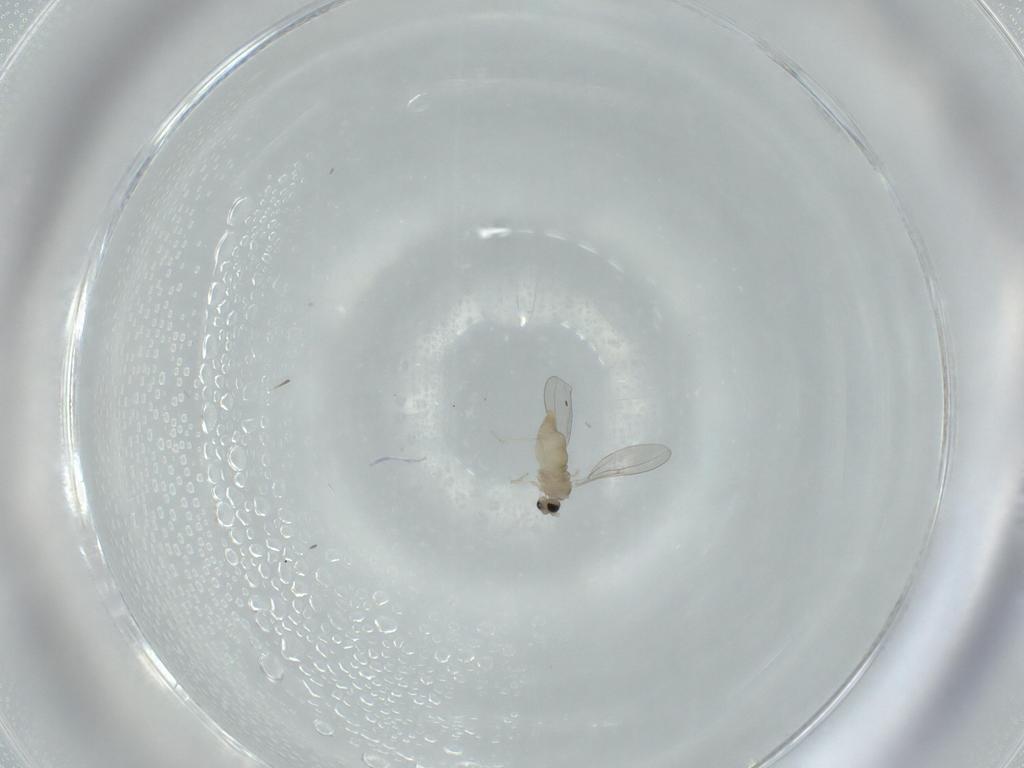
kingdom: Animalia
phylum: Arthropoda
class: Insecta
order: Diptera
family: Cecidomyiidae
